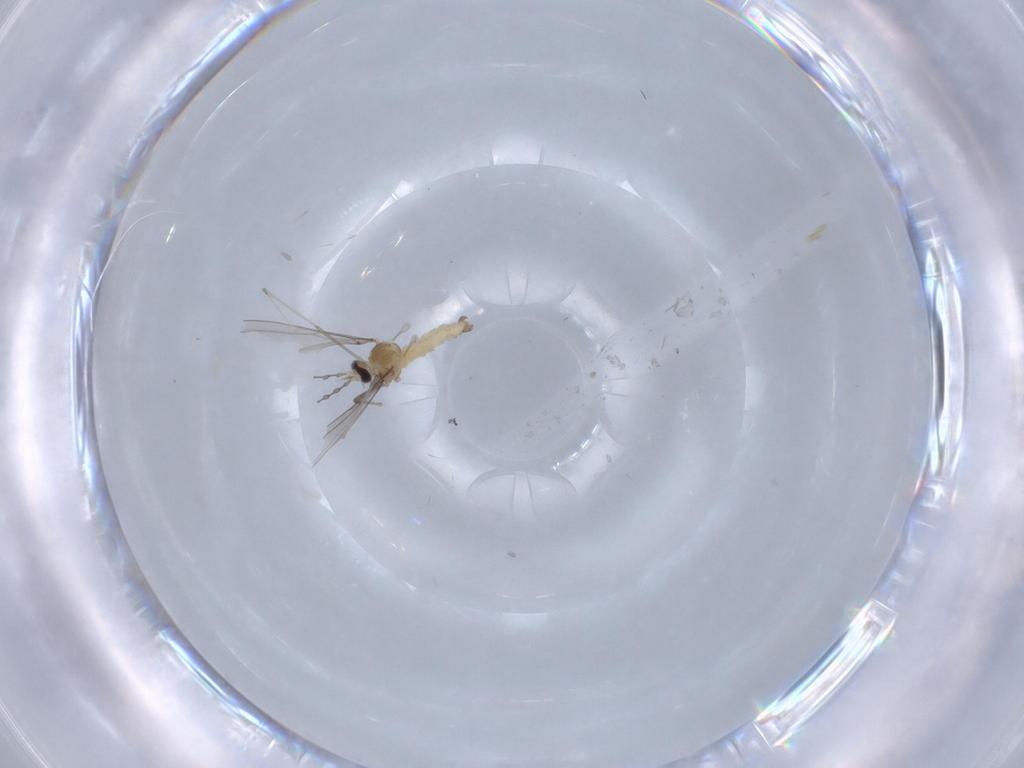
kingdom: Animalia
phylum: Arthropoda
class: Insecta
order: Diptera
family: Cecidomyiidae
